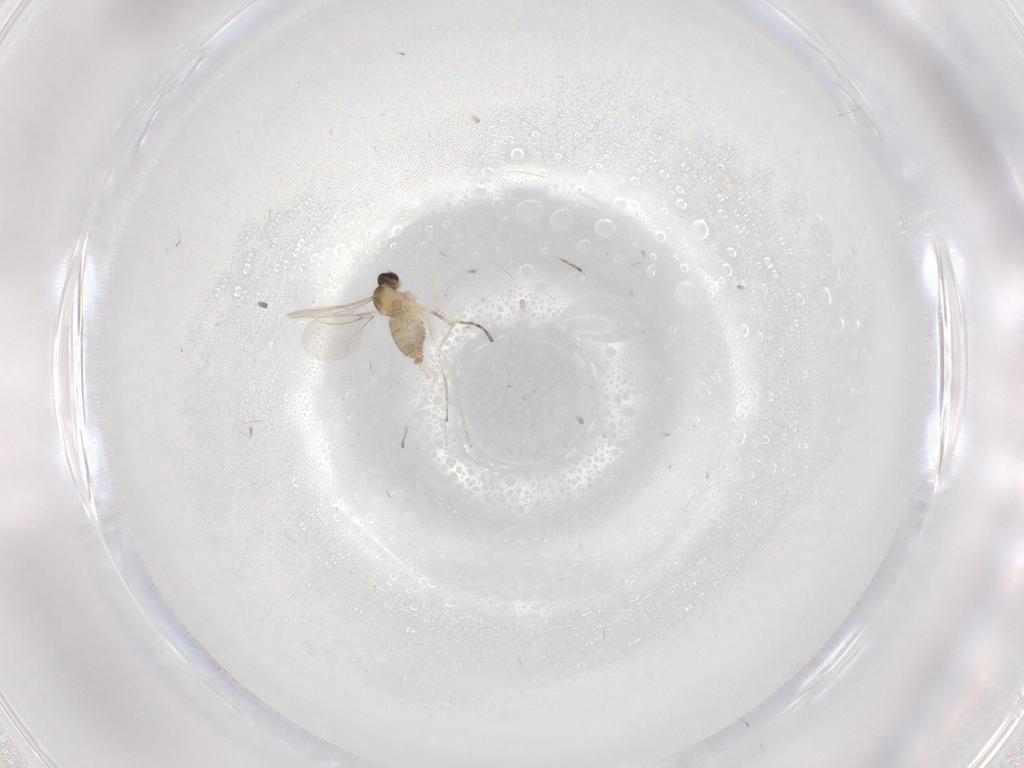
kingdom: Animalia
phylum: Arthropoda
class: Insecta
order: Diptera
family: Cecidomyiidae
